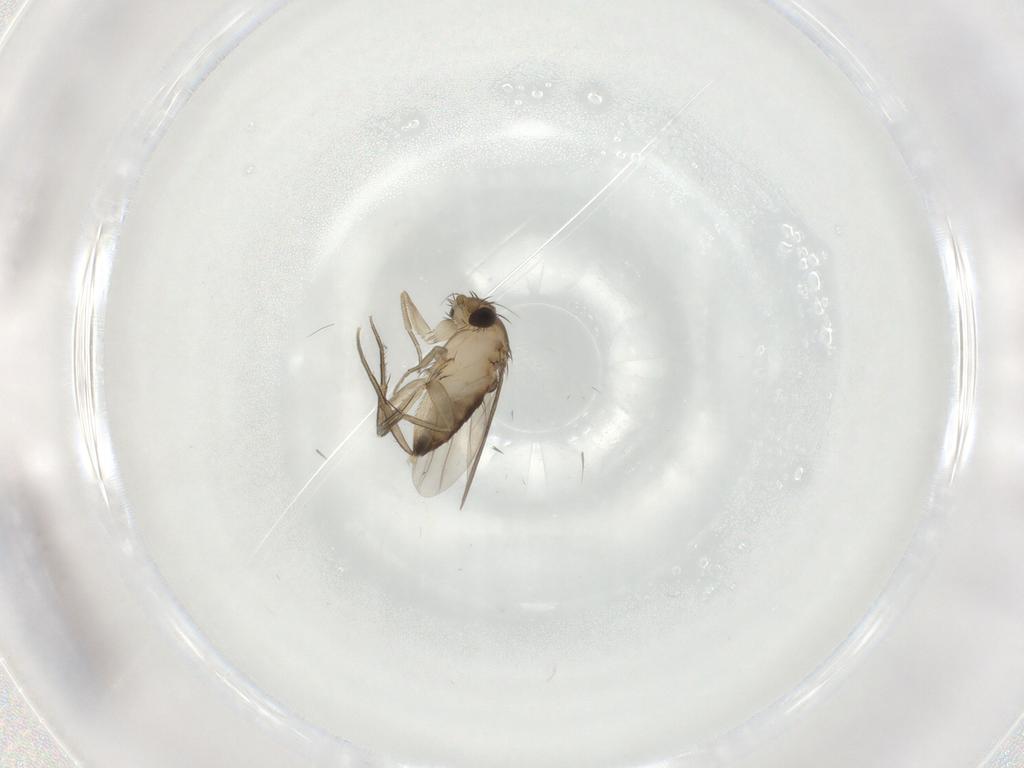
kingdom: Animalia
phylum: Arthropoda
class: Insecta
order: Diptera
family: Phoridae
